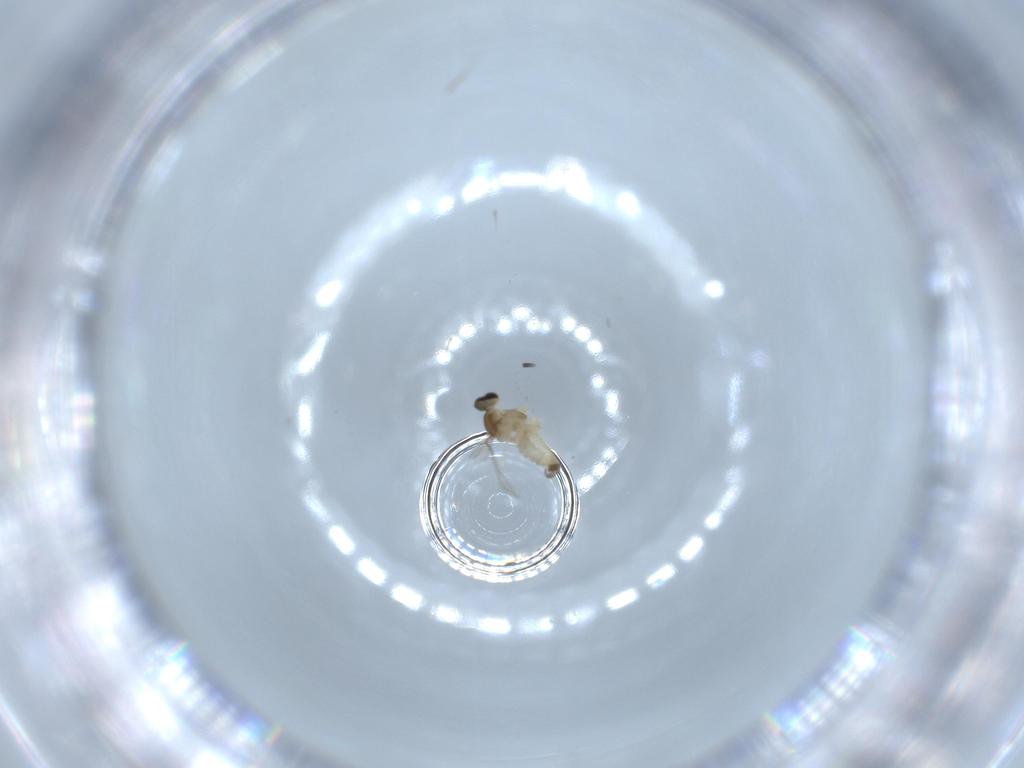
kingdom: Animalia
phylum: Arthropoda
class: Insecta
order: Diptera
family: Cecidomyiidae
